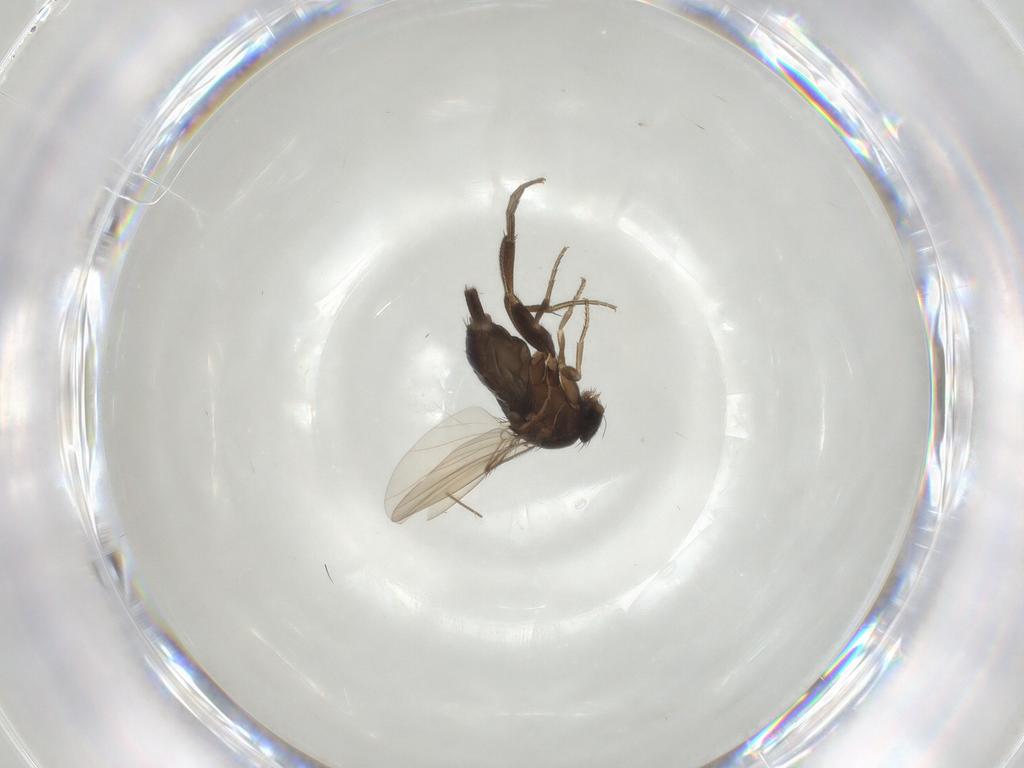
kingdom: Animalia
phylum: Arthropoda
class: Insecta
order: Diptera
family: Phoridae
